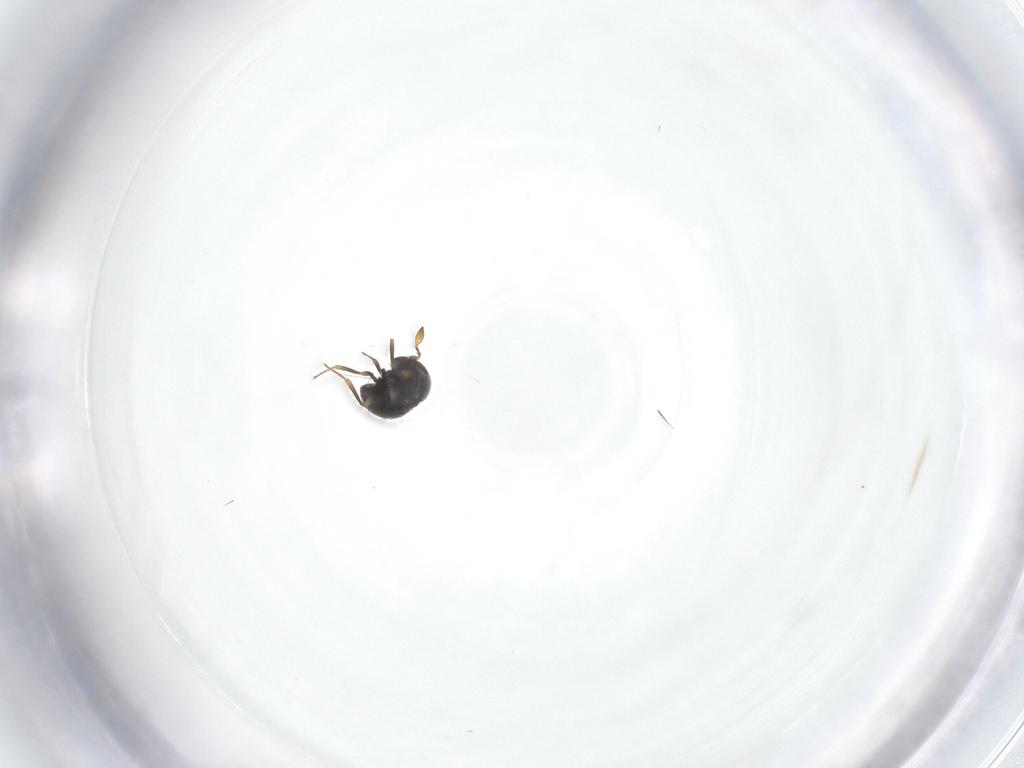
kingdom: Animalia
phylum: Arthropoda
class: Insecta
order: Hymenoptera
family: Scelionidae
